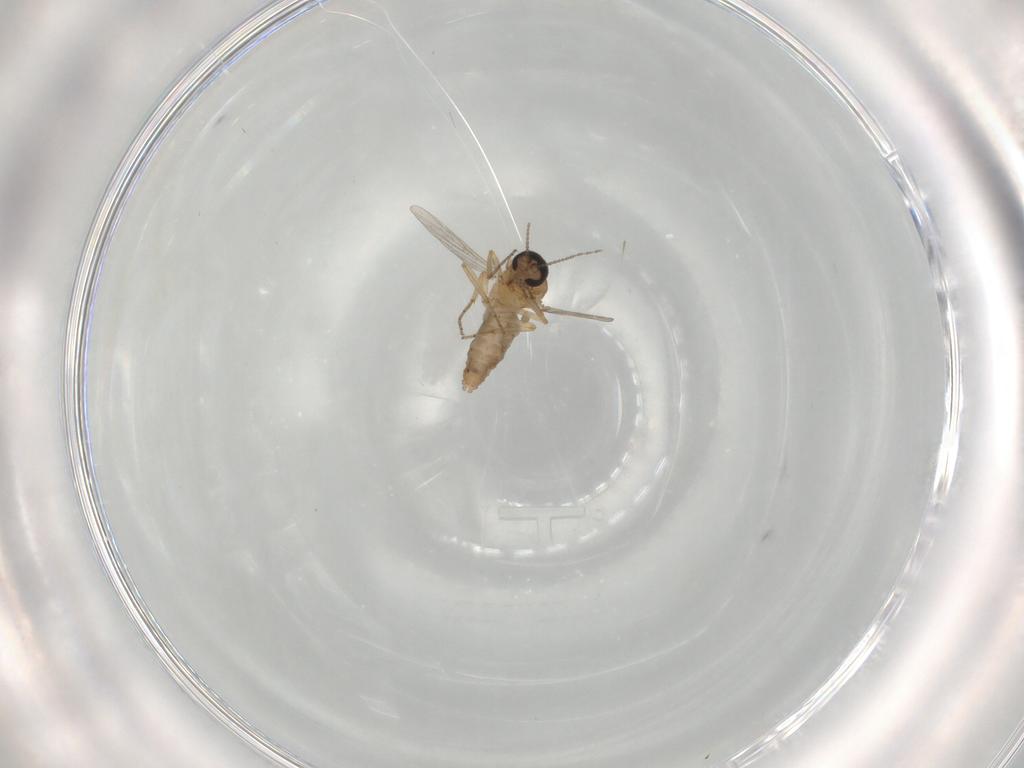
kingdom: Animalia
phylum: Arthropoda
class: Insecta
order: Diptera
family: Ceratopogonidae
